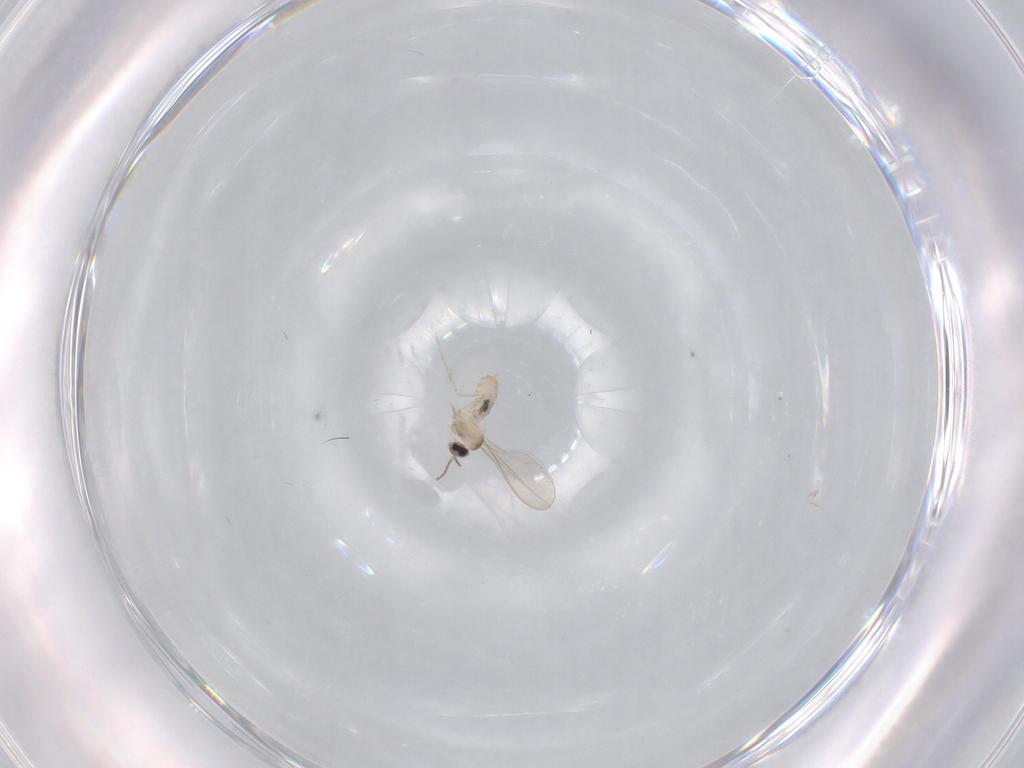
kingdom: Animalia
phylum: Arthropoda
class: Insecta
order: Diptera
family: Cecidomyiidae
